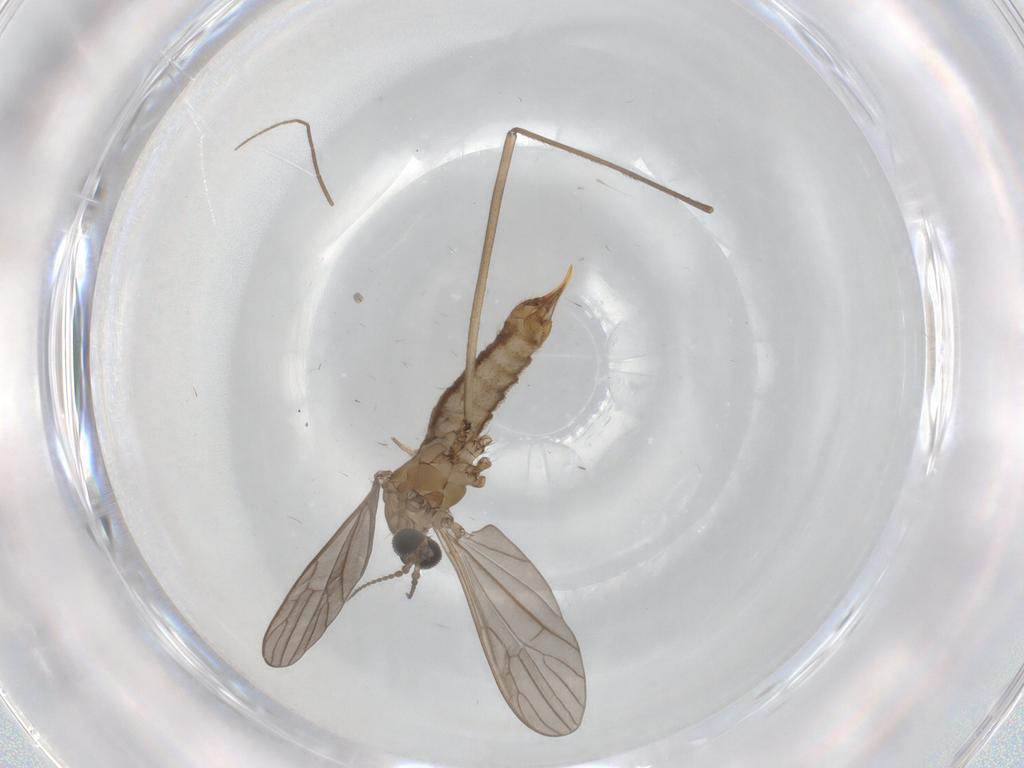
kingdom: Animalia
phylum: Arthropoda
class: Insecta
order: Diptera
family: Limoniidae
